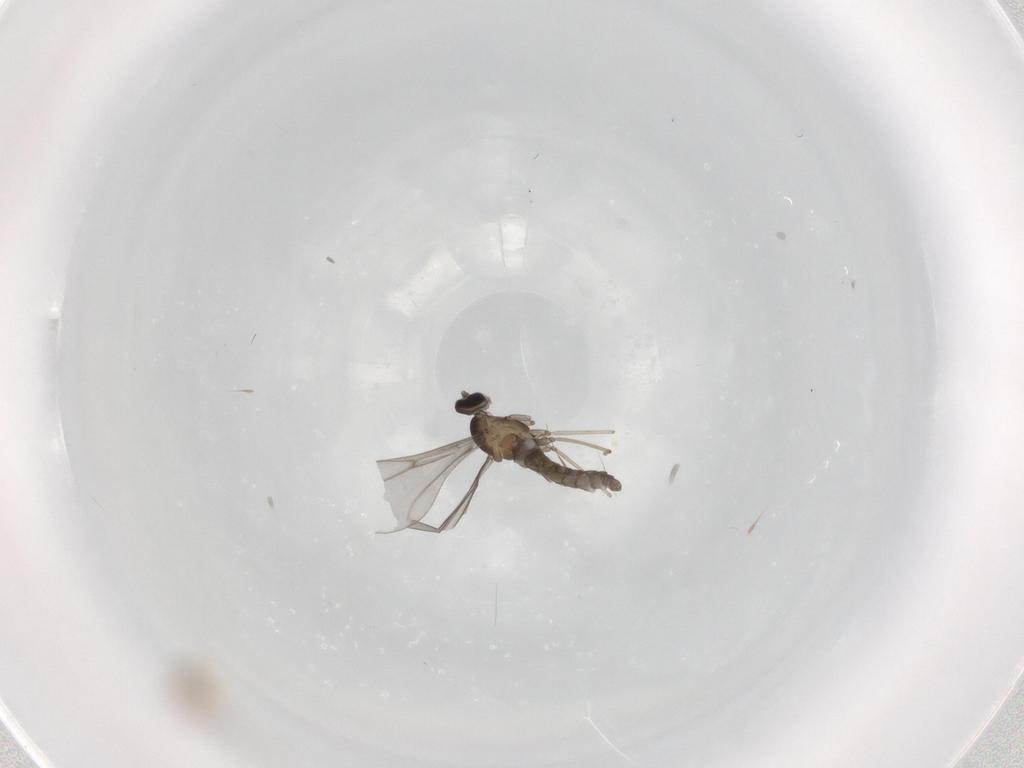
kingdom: Animalia
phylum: Arthropoda
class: Insecta
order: Diptera
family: Cecidomyiidae
